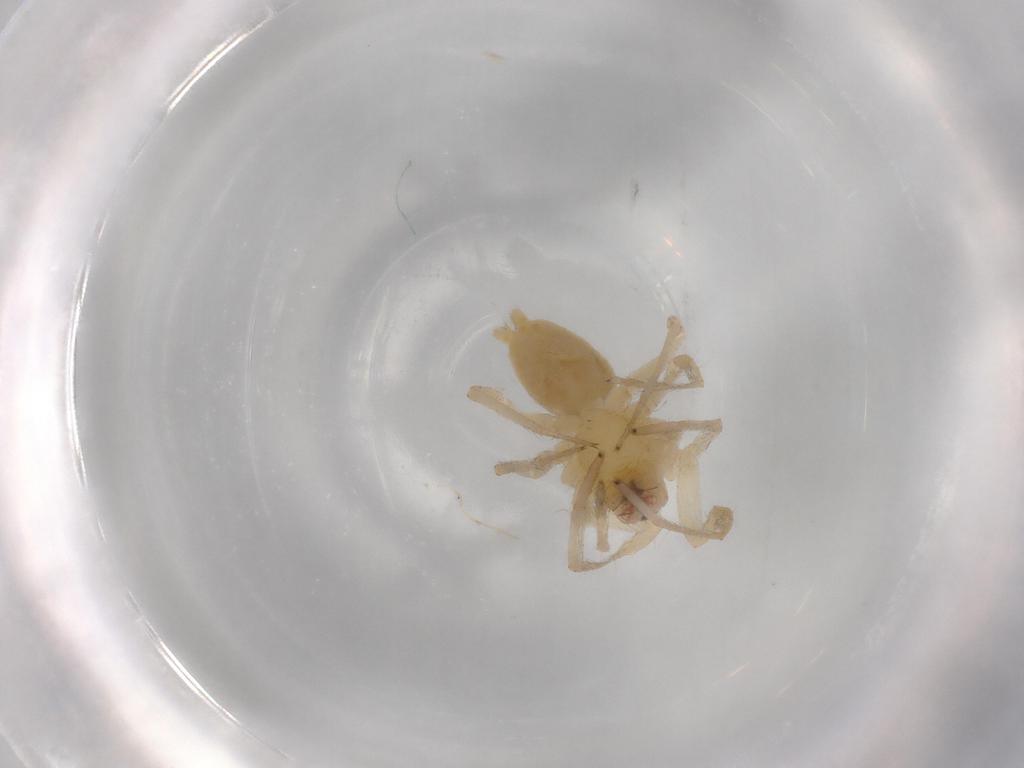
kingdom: Animalia
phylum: Arthropoda
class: Arachnida
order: Araneae
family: Cheiracanthiidae
